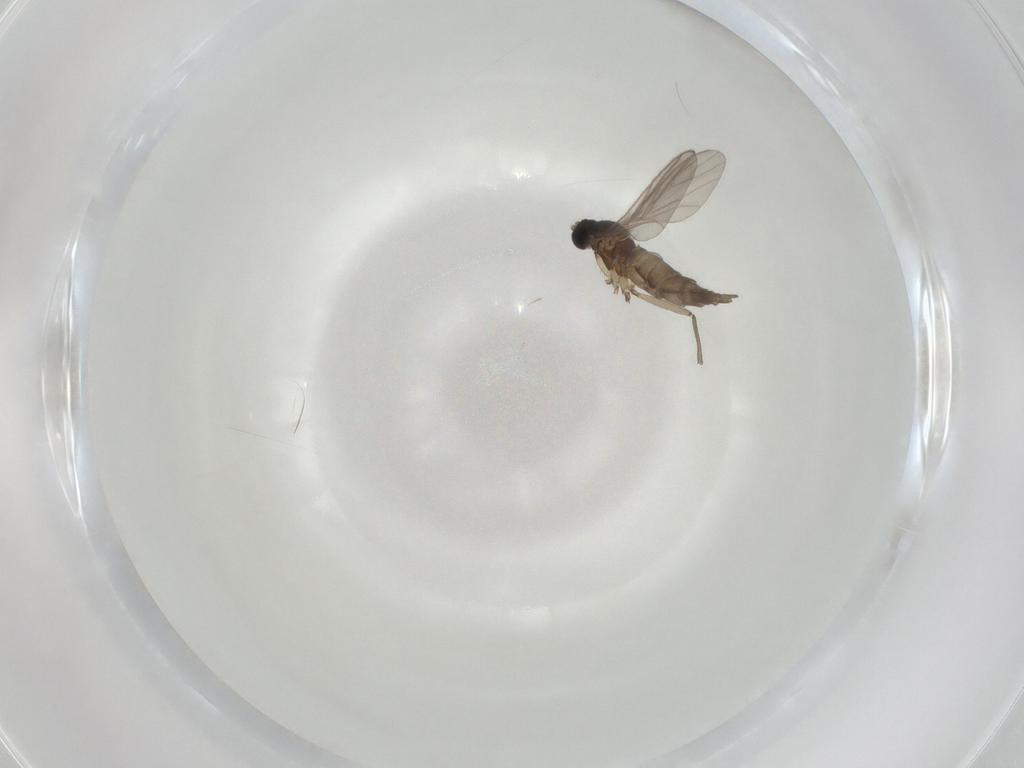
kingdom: Animalia
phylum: Arthropoda
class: Insecta
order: Diptera
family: Sciaridae
